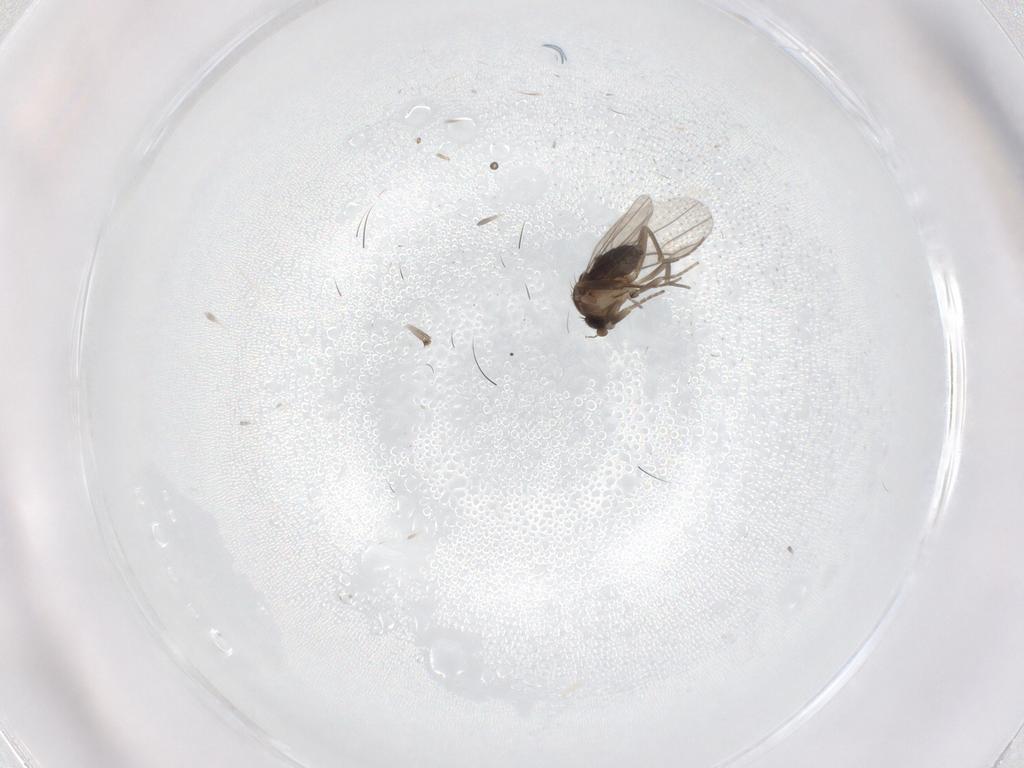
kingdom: Animalia
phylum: Arthropoda
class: Insecta
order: Diptera
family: Phoridae
